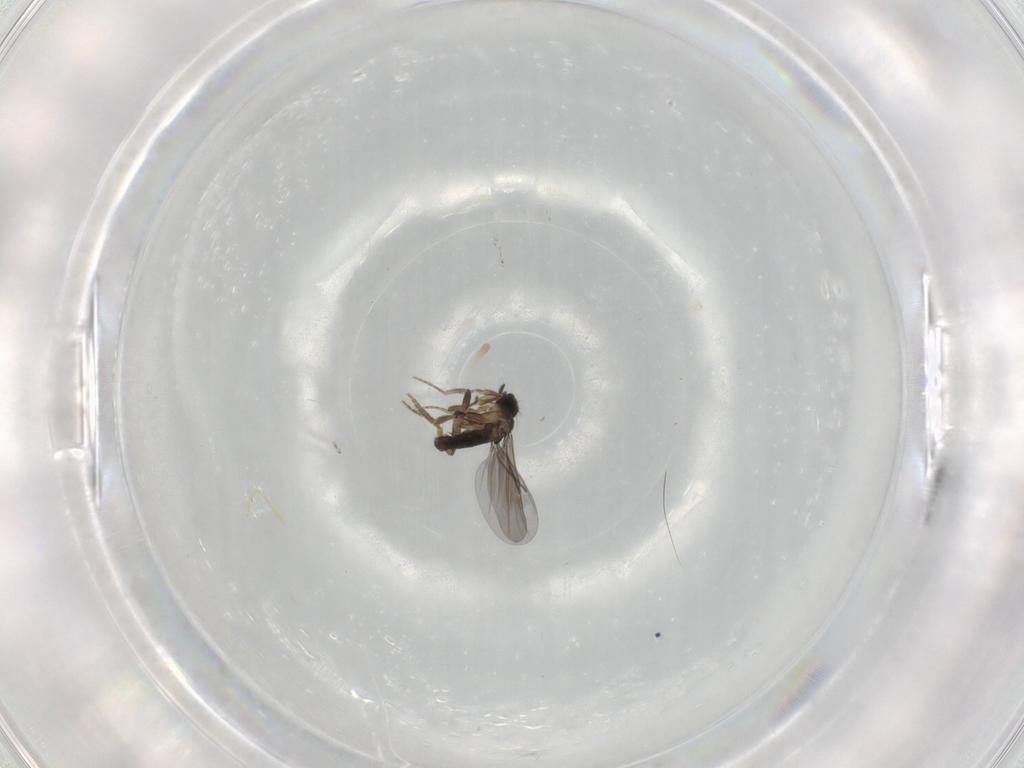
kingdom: Animalia
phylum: Arthropoda
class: Insecta
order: Diptera
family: Cecidomyiidae
